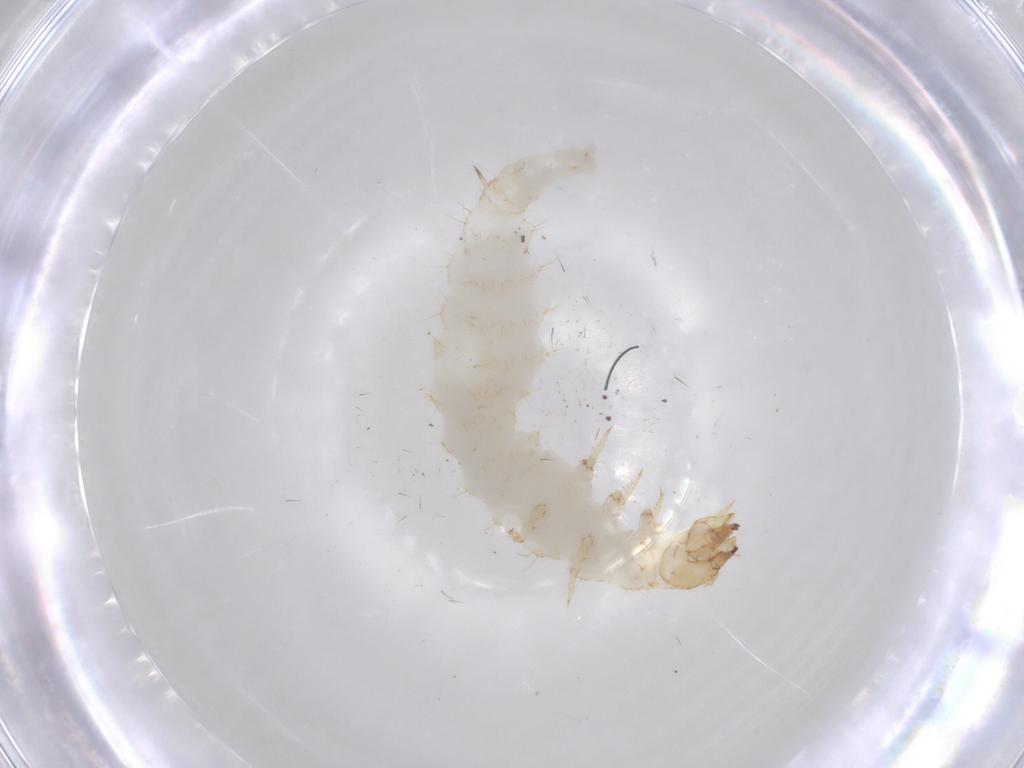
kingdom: Animalia
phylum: Arthropoda
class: Insecta
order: Coleoptera
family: Staphylinidae
